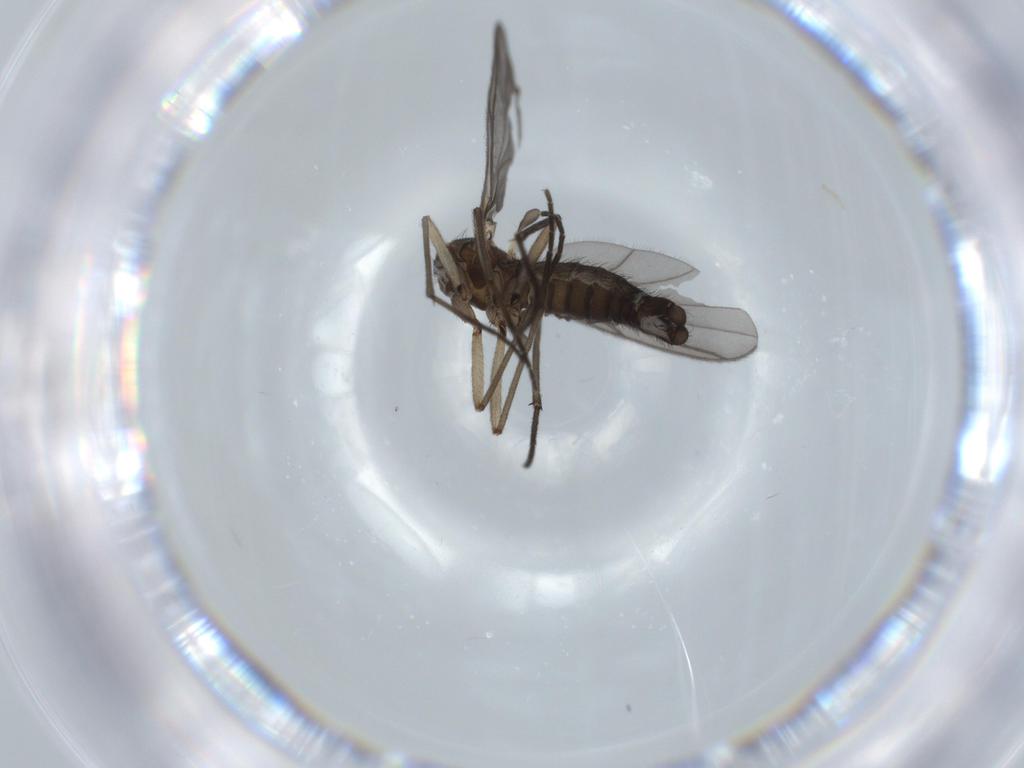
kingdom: Animalia
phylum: Arthropoda
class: Insecta
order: Diptera
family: Sciaridae
